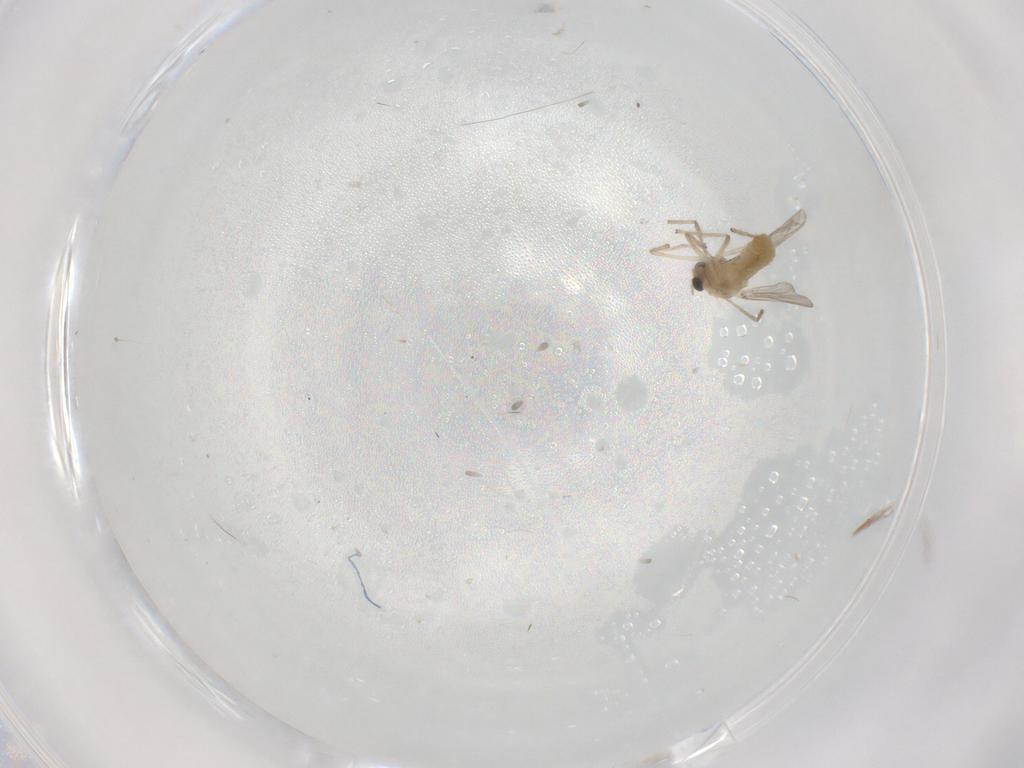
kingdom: Animalia
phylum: Arthropoda
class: Insecta
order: Diptera
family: Chironomidae
